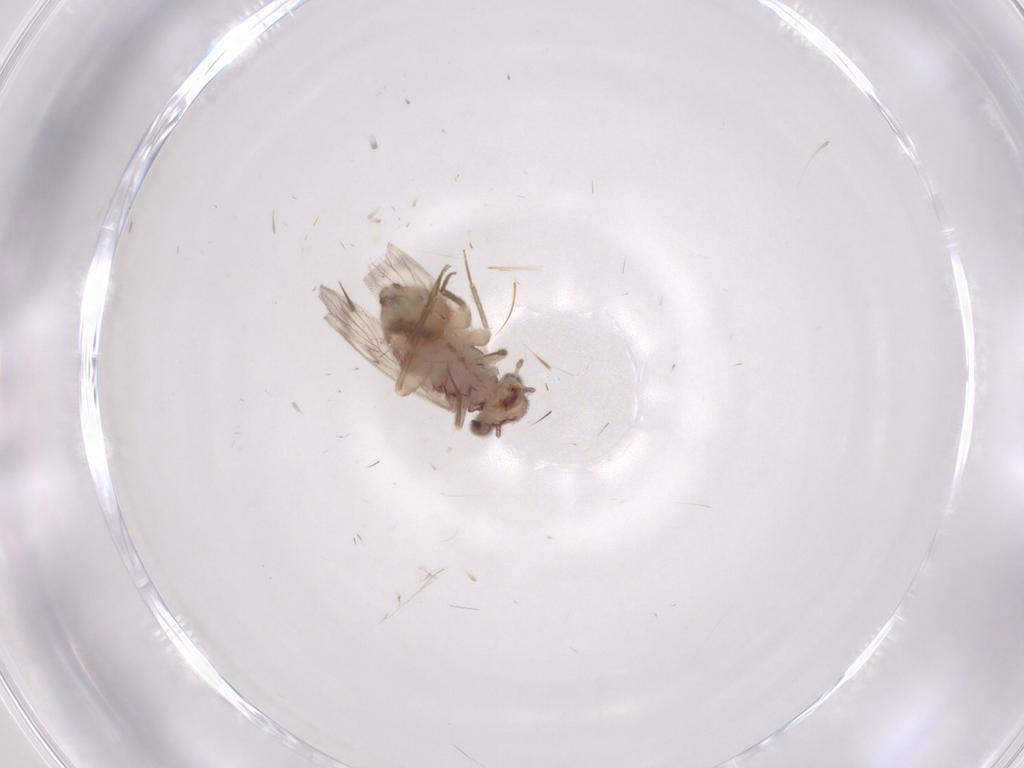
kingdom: Animalia
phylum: Arthropoda
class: Insecta
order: Psocodea
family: Lepidopsocidae
